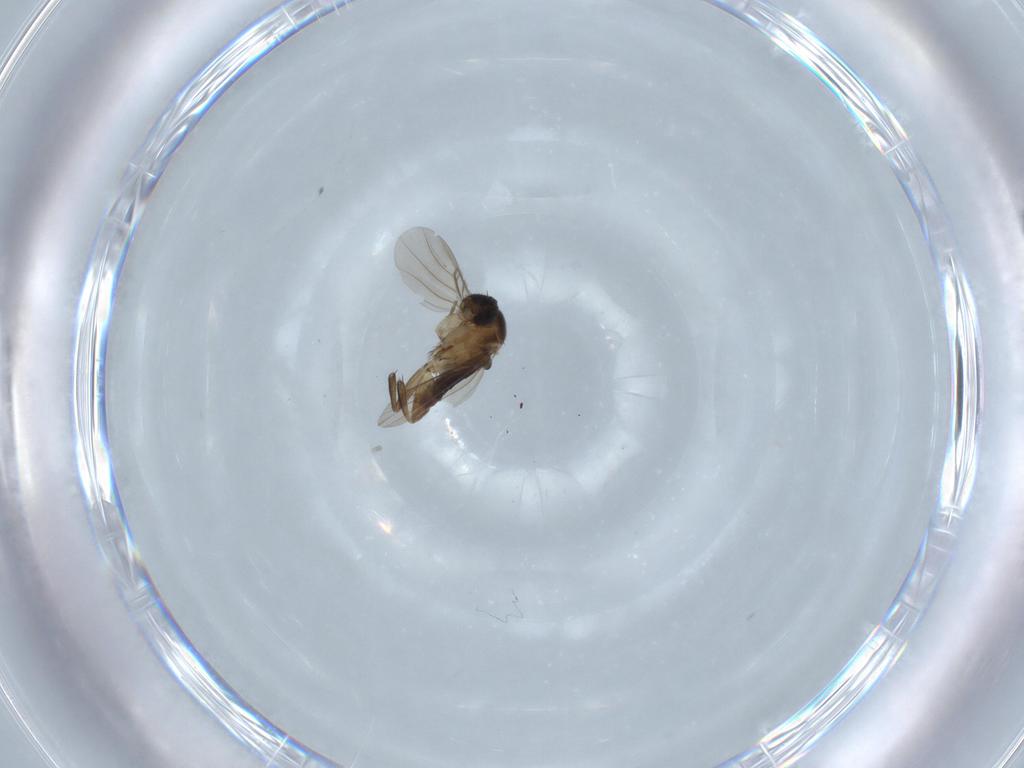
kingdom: Animalia
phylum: Arthropoda
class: Insecta
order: Diptera
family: Phoridae
